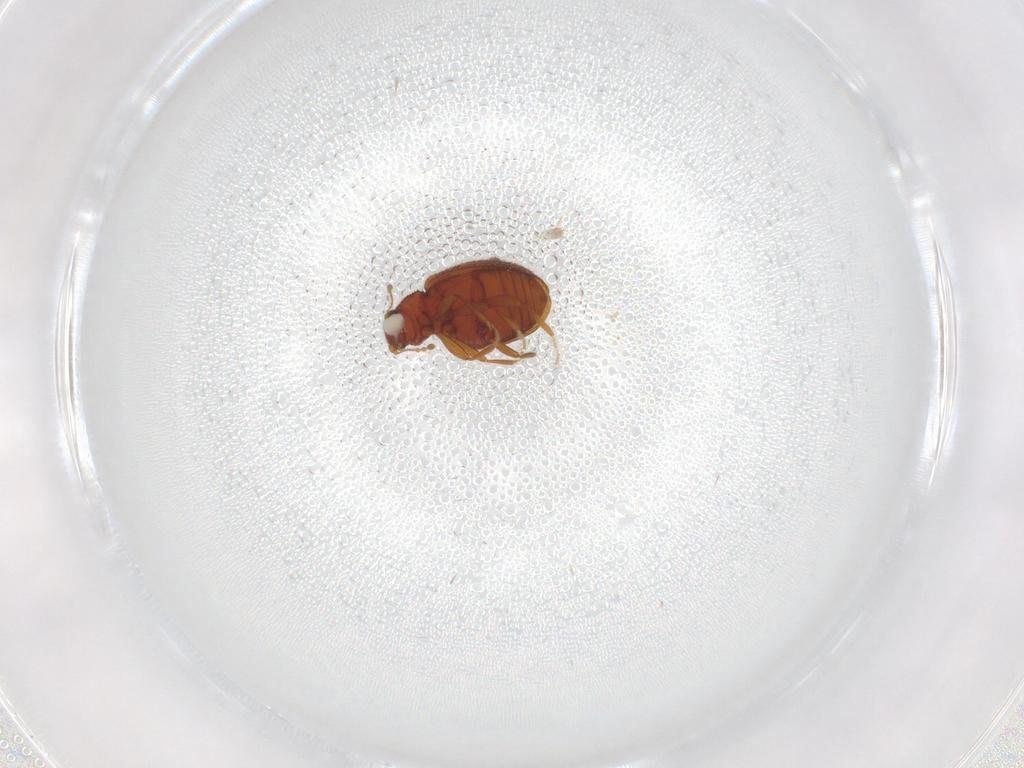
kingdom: Animalia
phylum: Arthropoda
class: Insecta
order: Coleoptera
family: Latridiidae
